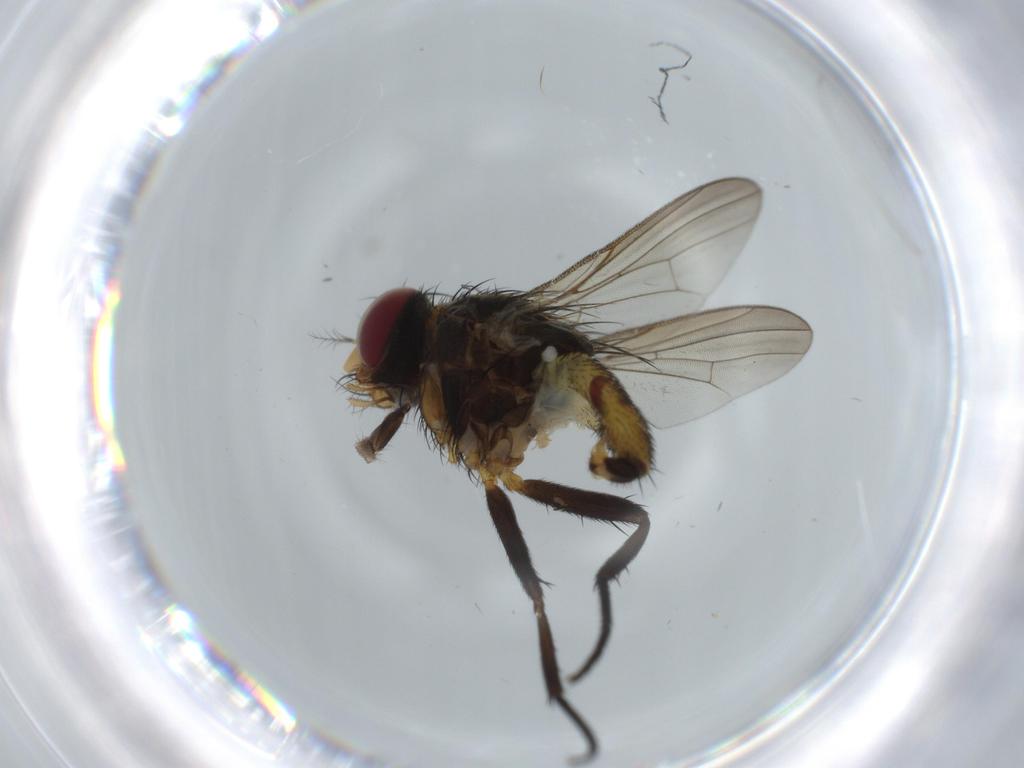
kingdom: Animalia
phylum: Arthropoda
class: Insecta
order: Diptera
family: Anthomyiidae
